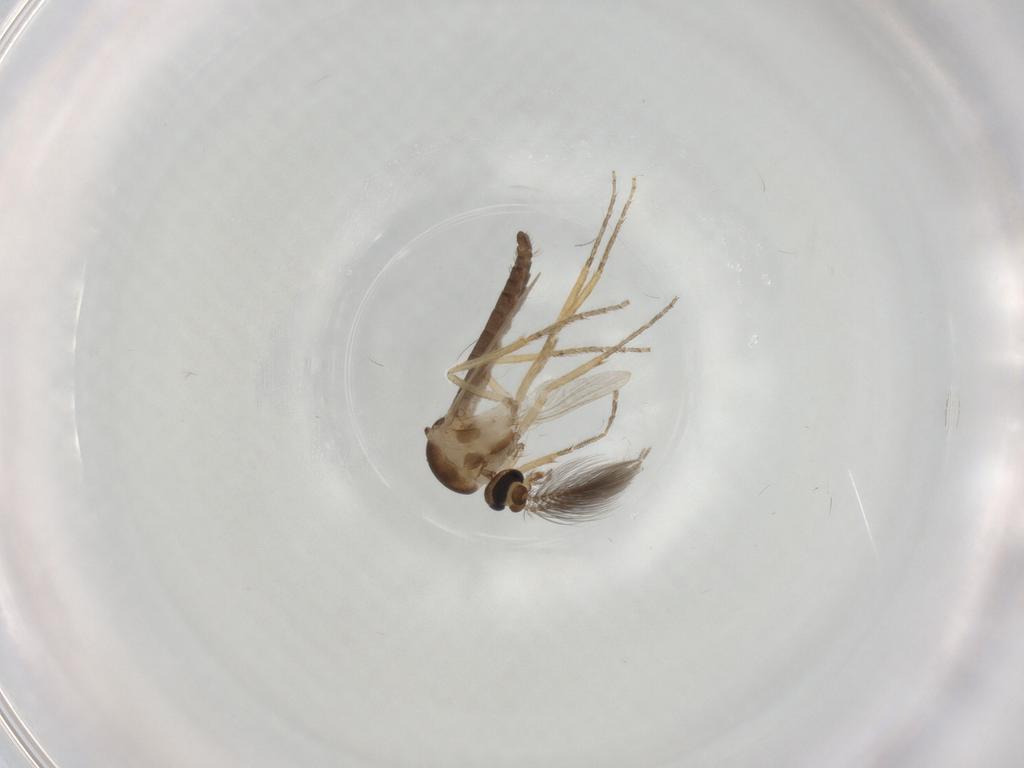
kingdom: Animalia
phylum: Arthropoda
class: Insecta
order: Diptera
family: Ceratopogonidae
